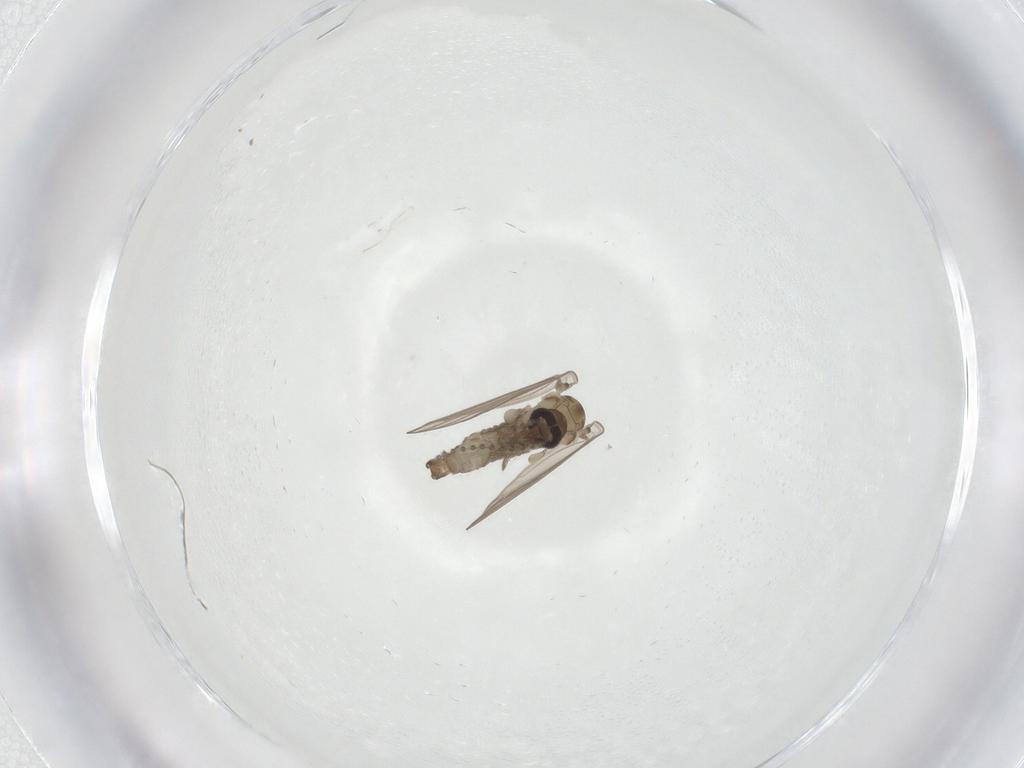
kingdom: Animalia
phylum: Arthropoda
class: Insecta
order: Diptera
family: Psychodidae
